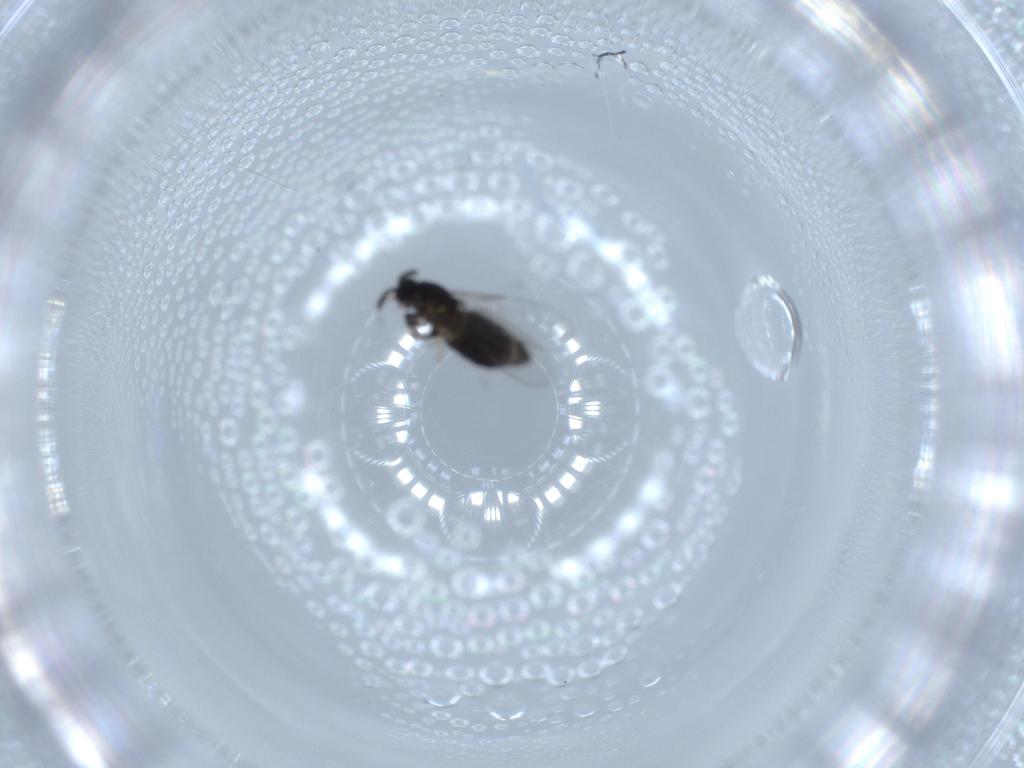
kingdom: Animalia
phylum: Arthropoda
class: Insecta
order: Diptera
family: Scatopsidae
